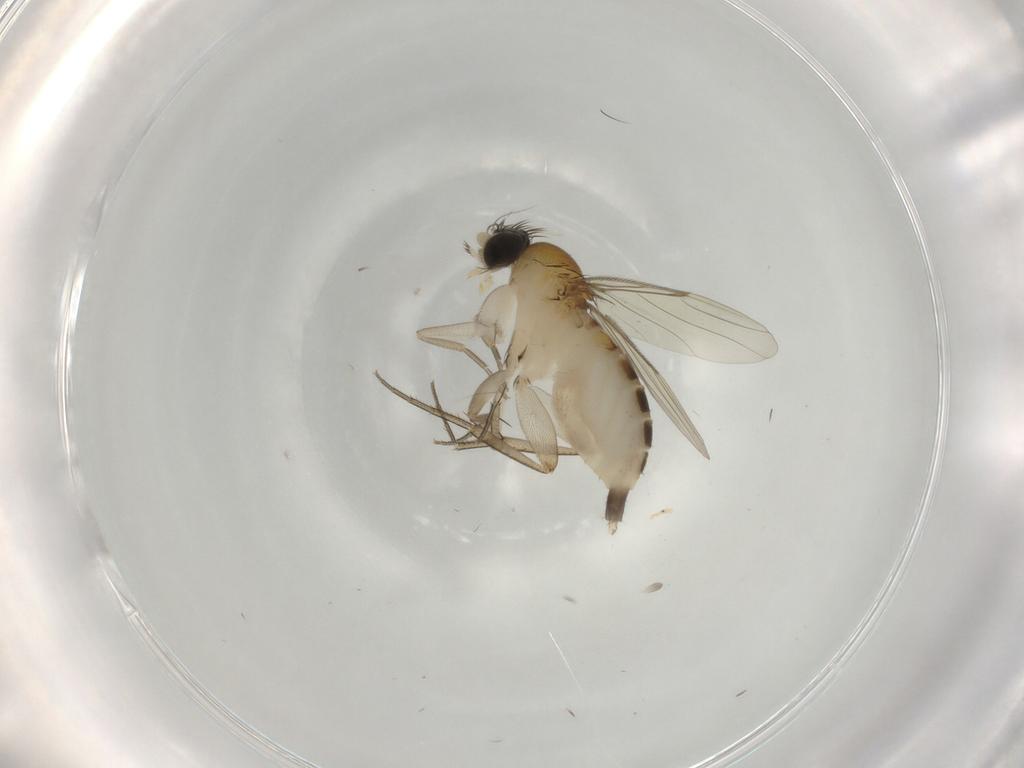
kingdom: Animalia
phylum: Arthropoda
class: Insecta
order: Diptera
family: Phoridae
